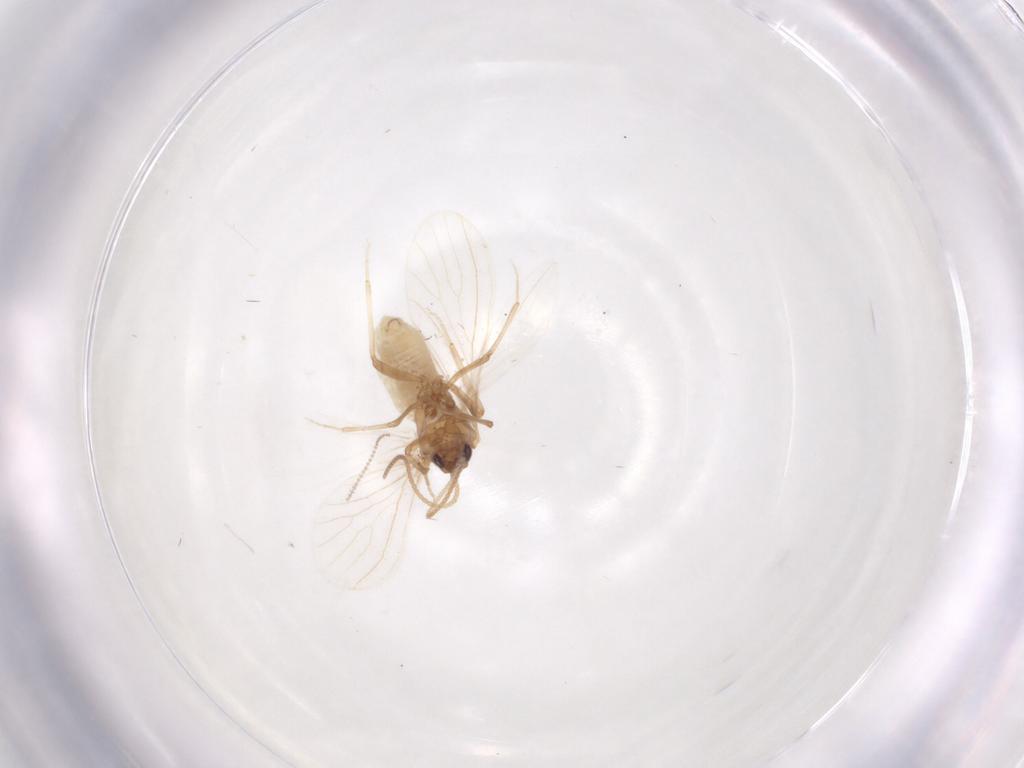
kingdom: Animalia
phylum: Arthropoda
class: Insecta
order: Neuroptera
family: Coniopterygidae
